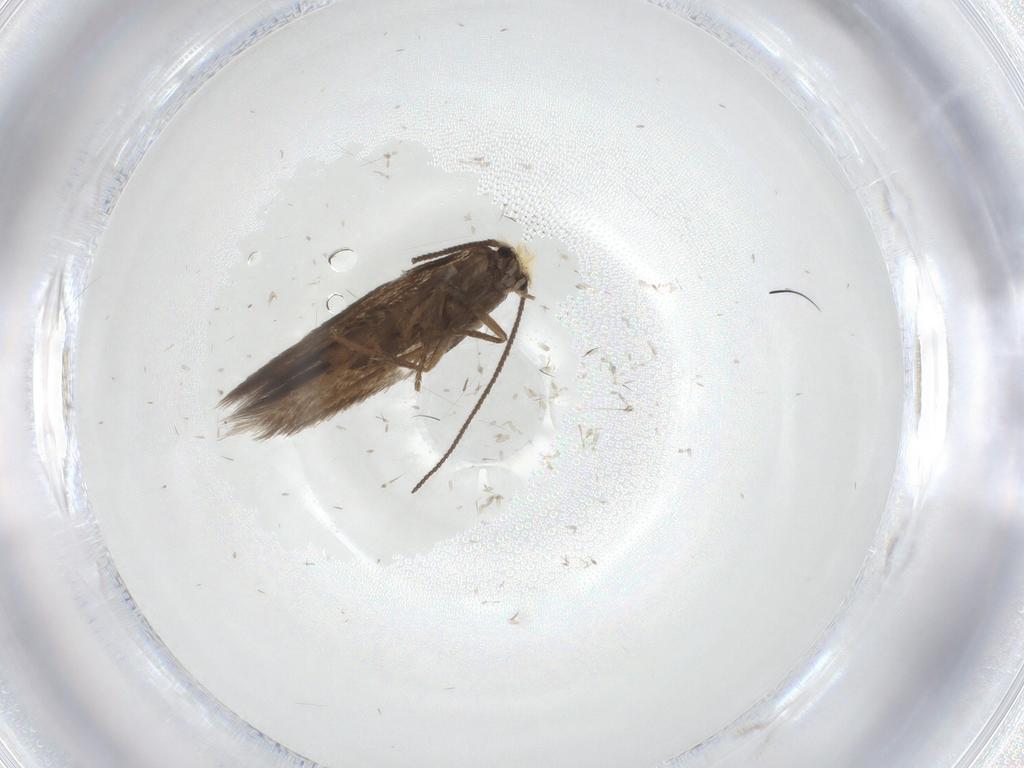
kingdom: Animalia
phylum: Arthropoda
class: Insecta
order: Lepidoptera
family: Nepticulidae
